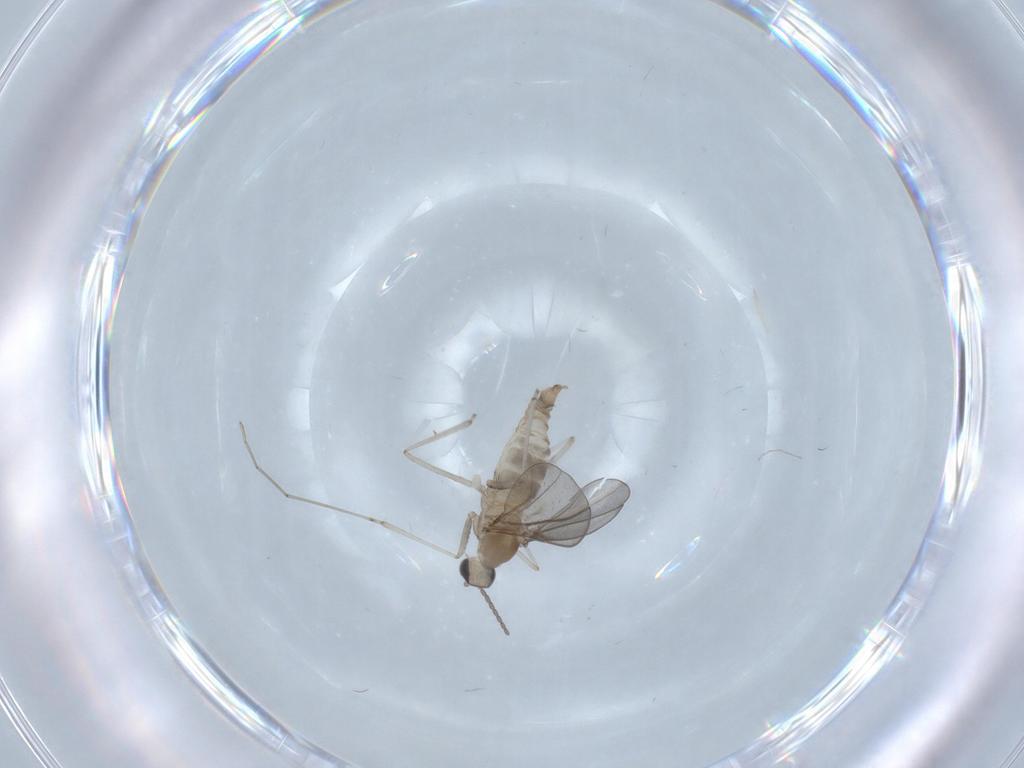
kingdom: Animalia
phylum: Arthropoda
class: Insecta
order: Diptera
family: Cecidomyiidae
